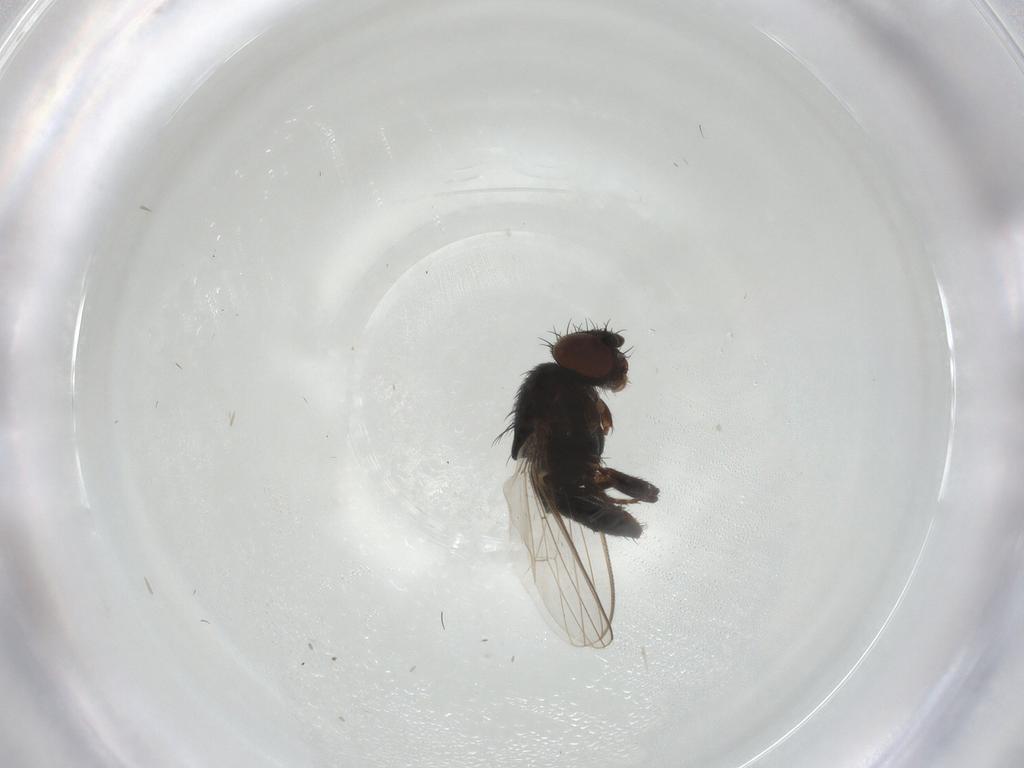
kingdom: Animalia
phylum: Arthropoda
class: Insecta
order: Diptera
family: Chloropidae
